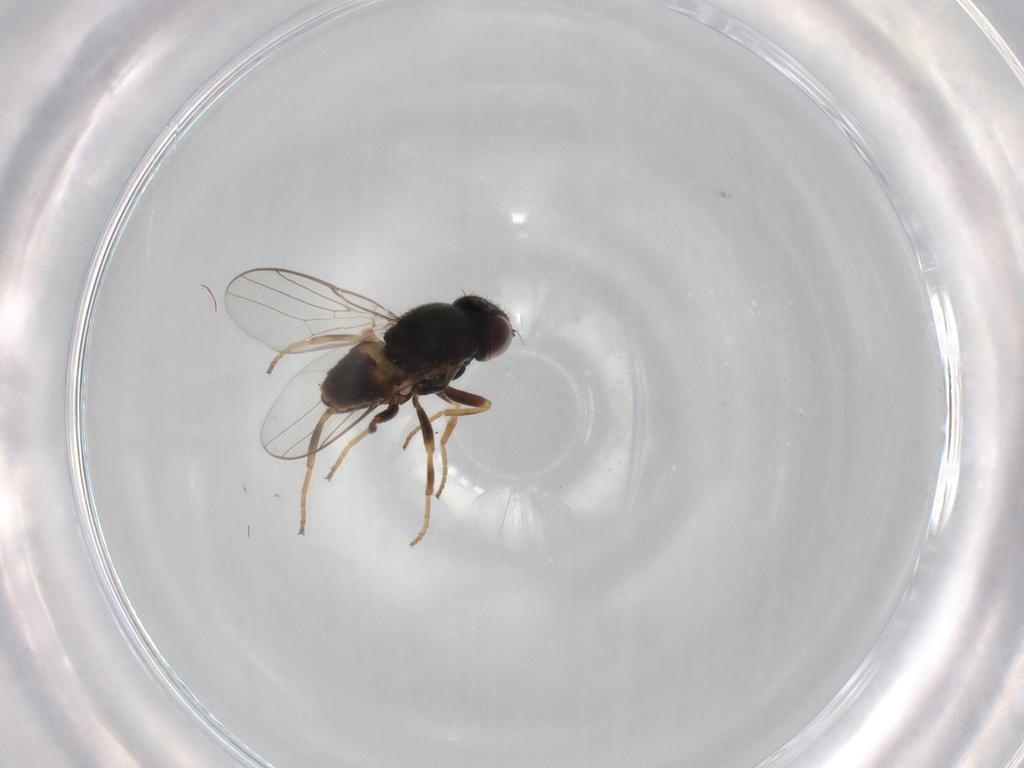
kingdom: Animalia
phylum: Arthropoda
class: Insecta
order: Diptera
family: Chloropidae
